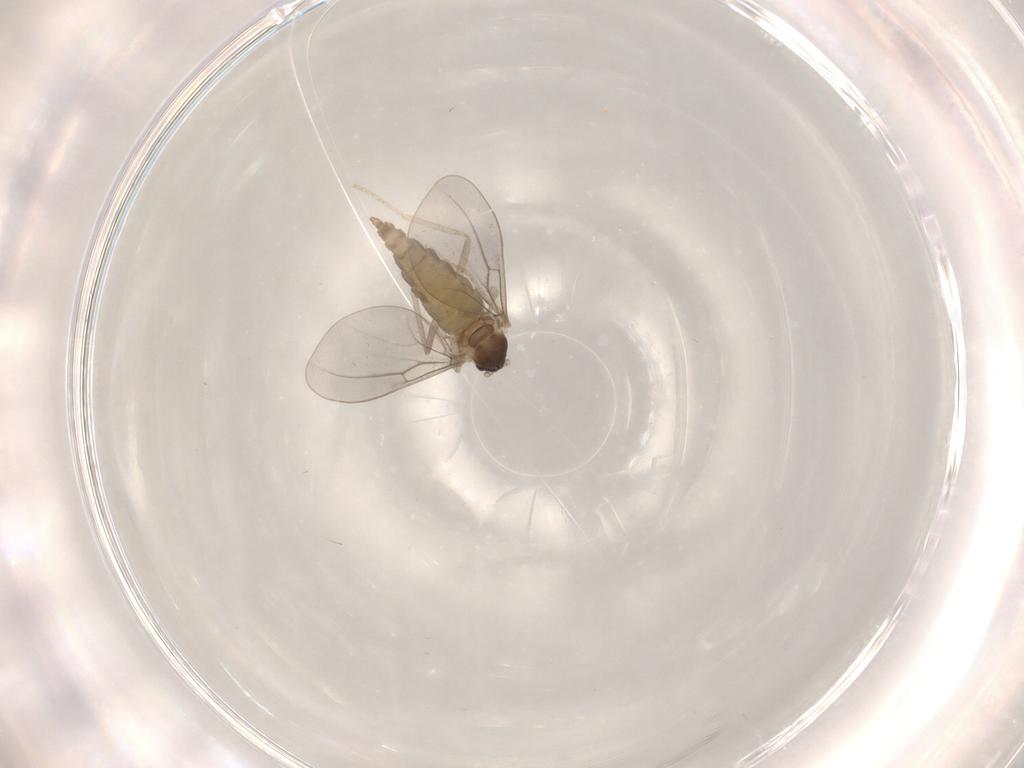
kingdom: Animalia
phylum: Arthropoda
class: Insecta
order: Diptera
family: Cecidomyiidae
